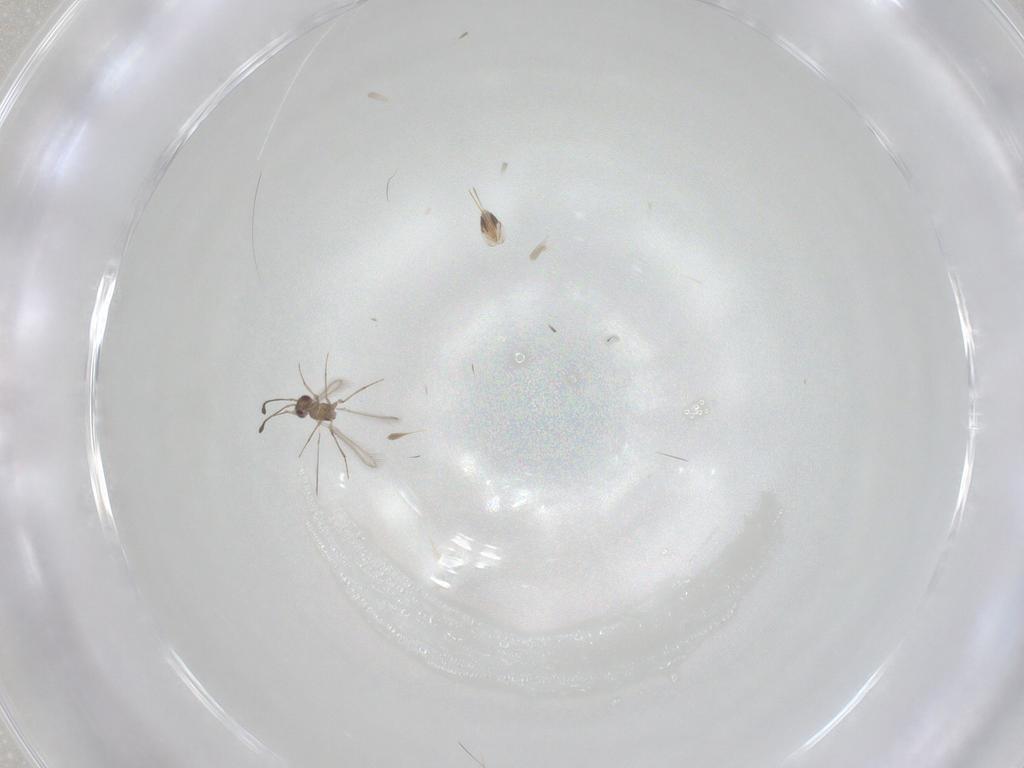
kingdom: Animalia
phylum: Arthropoda
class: Insecta
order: Hymenoptera
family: Mymaridae
